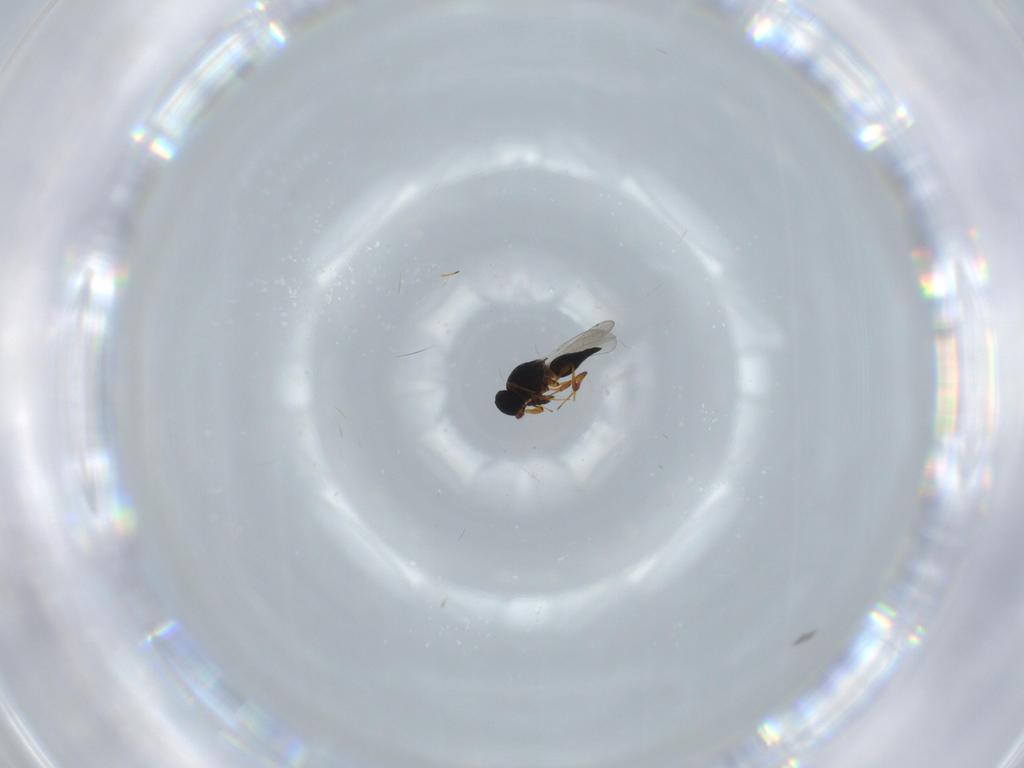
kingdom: Animalia
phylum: Arthropoda
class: Insecta
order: Hymenoptera
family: Platygastridae
